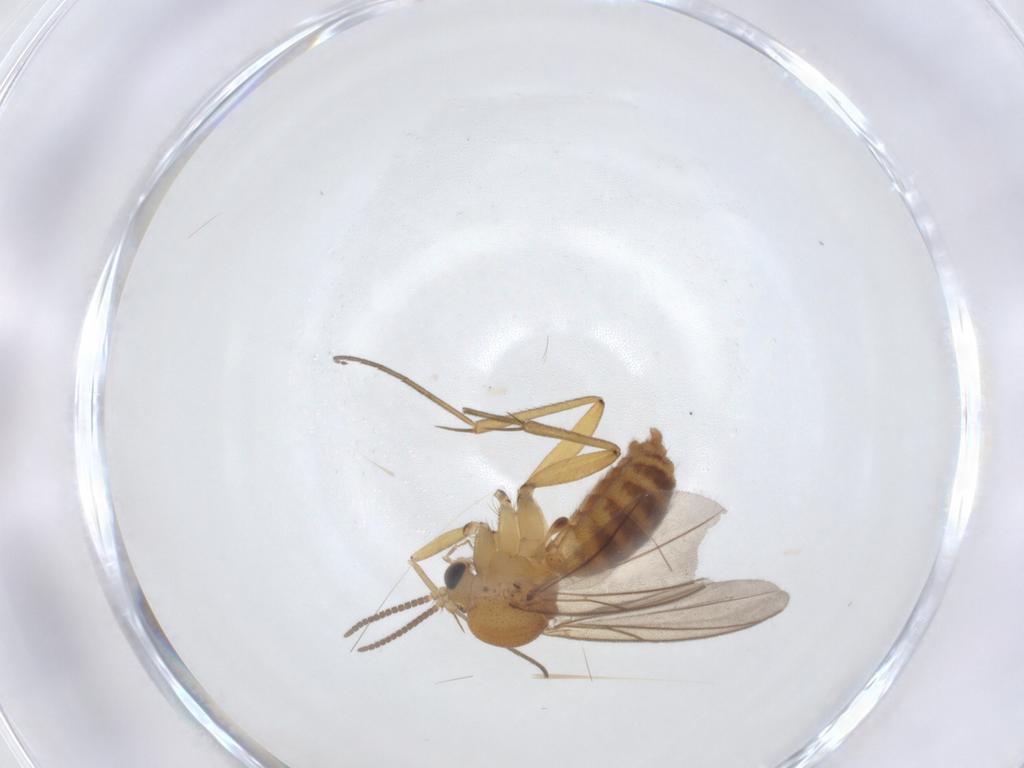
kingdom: Animalia
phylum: Arthropoda
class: Insecta
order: Diptera
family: Mycetophilidae
